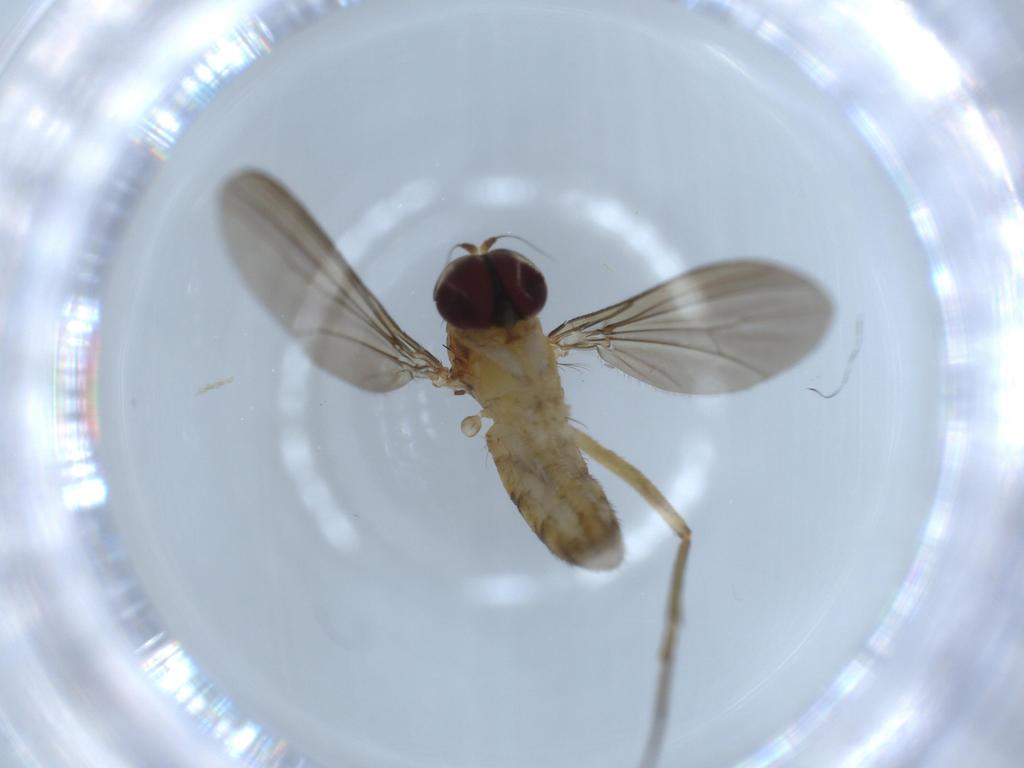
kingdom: Animalia
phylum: Arthropoda
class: Insecta
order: Diptera
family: Dolichopodidae
